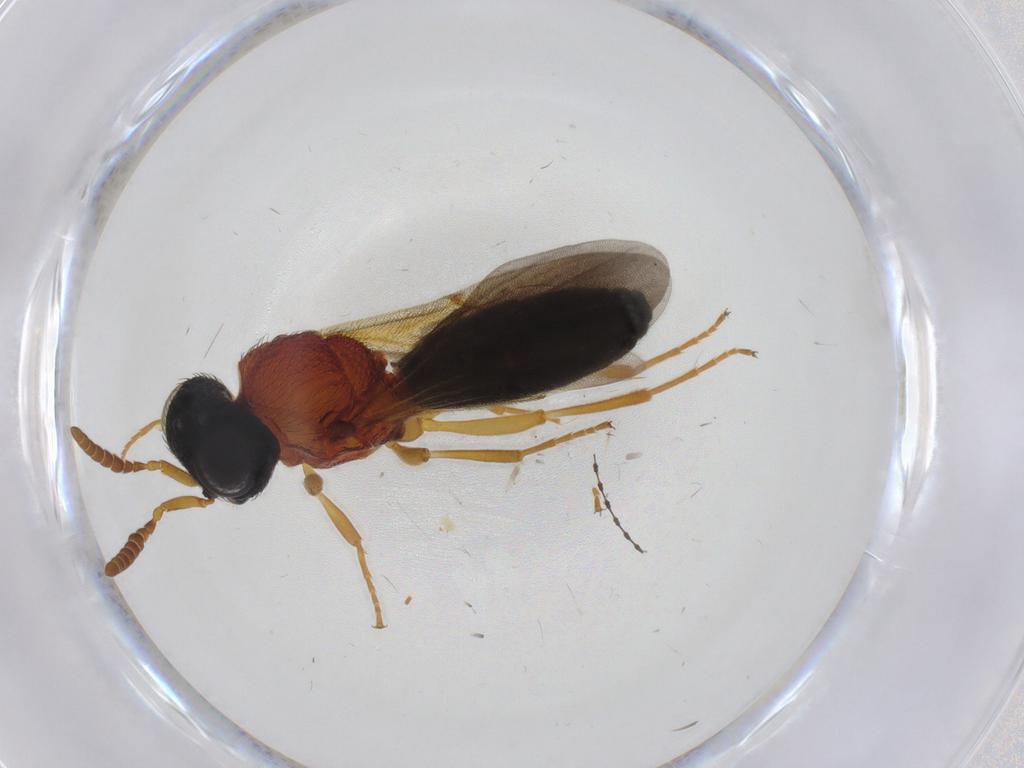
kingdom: Animalia
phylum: Arthropoda
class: Insecta
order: Hymenoptera
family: Scelionidae
